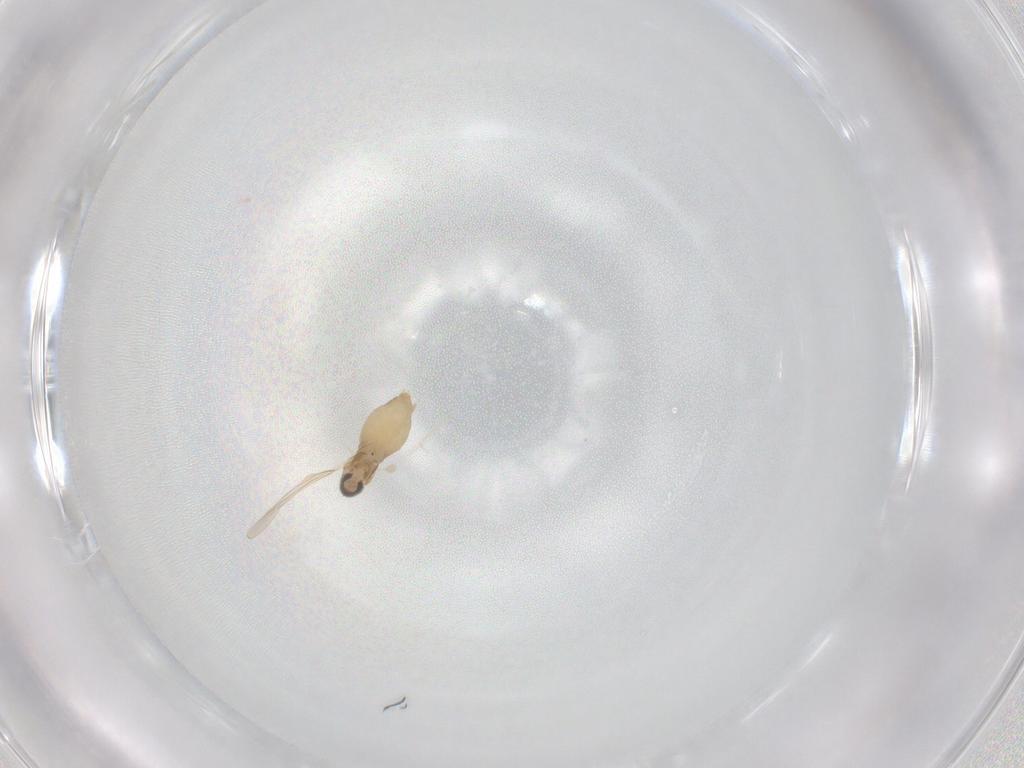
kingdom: Animalia
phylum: Arthropoda
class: Insecta
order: Diptera
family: Cecidomyiidae
